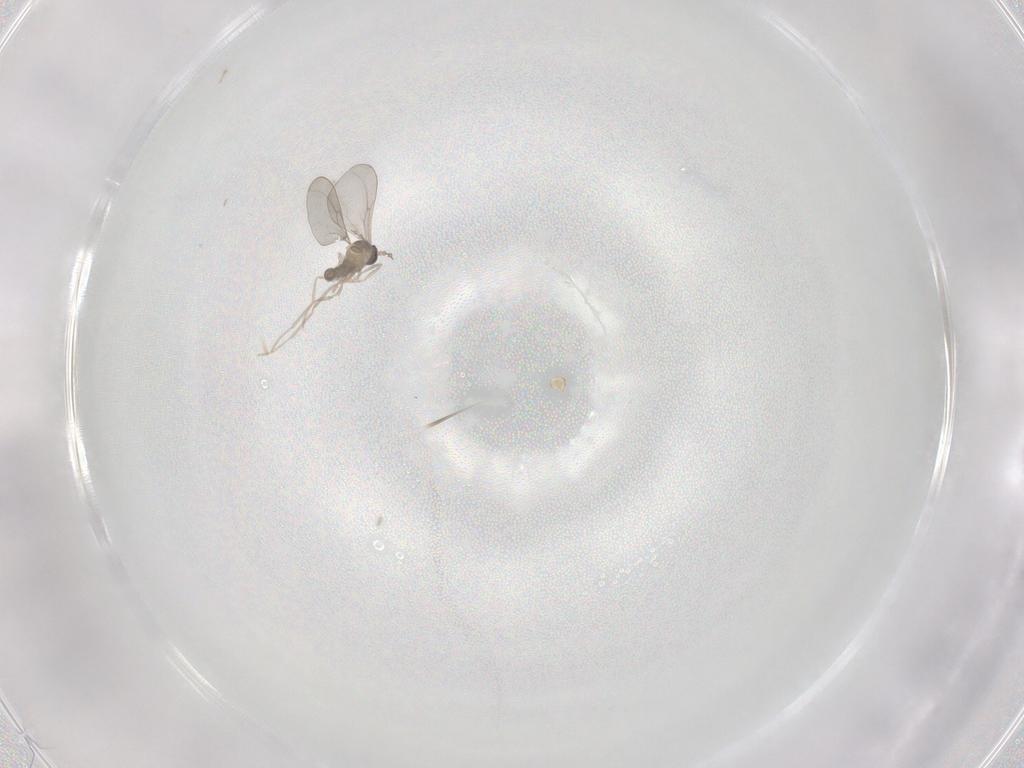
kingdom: Animalia
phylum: Arthropoda
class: Insecta
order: Diptera
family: Cecidomyiidae
